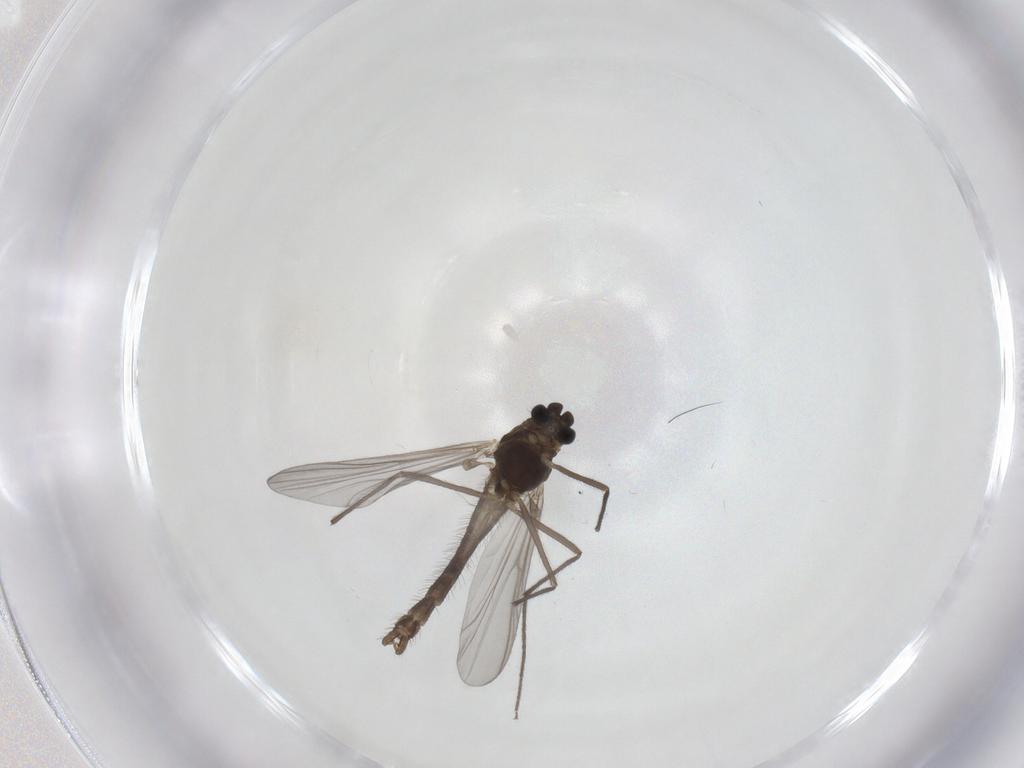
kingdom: Animalia
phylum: Arthropoda
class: Insecta
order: Diptera
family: Chironomidae
